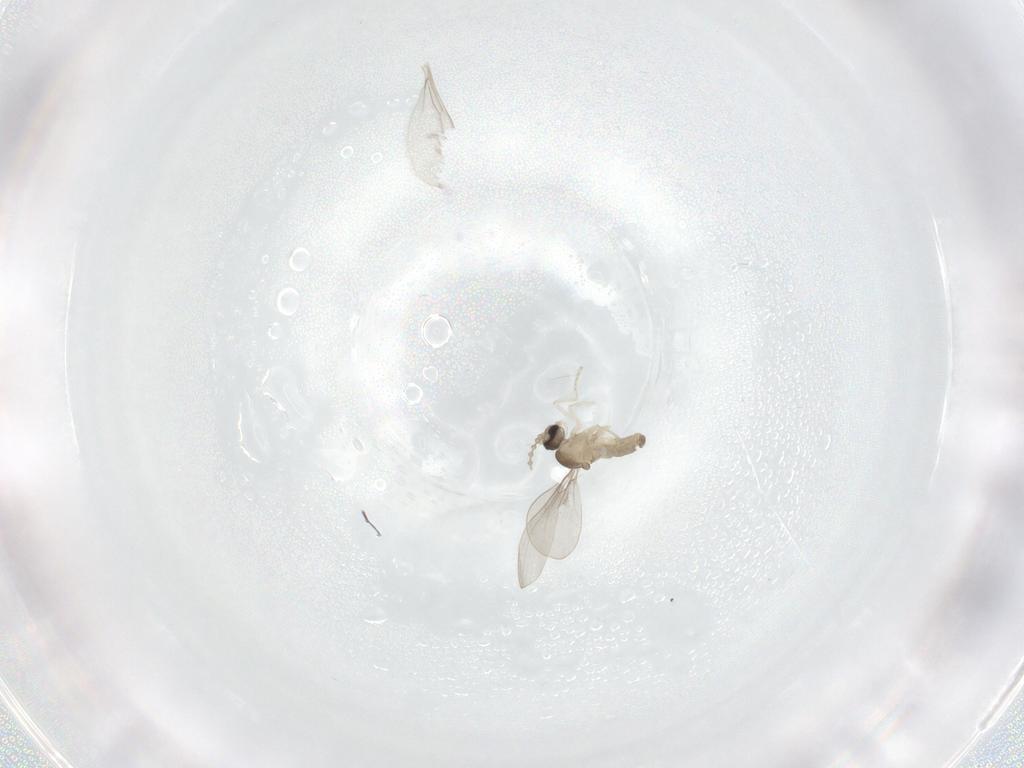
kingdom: Animalia
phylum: Arthropoda
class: Insecta
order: Diptera
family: Cecidomyiidae
